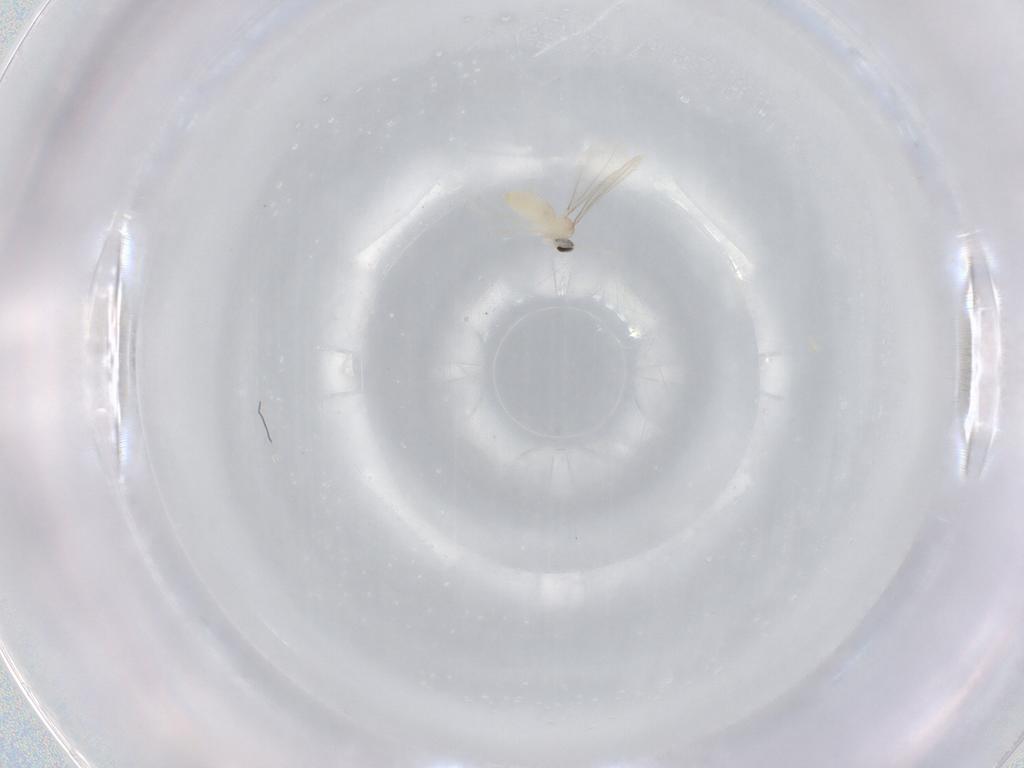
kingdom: Animalia
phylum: Arthropoda
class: Insecta
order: Diptera
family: Cecidomyiidae
